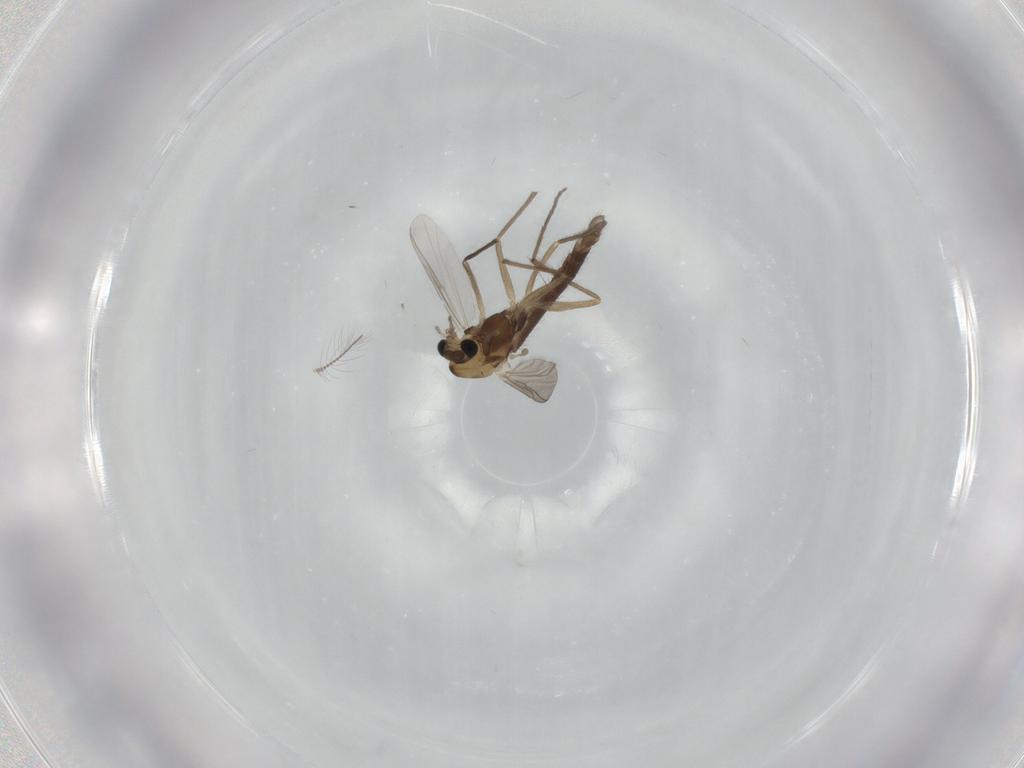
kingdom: Animalia
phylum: Arthropoda
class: Insecta
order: Diptera
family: Chironomidae
